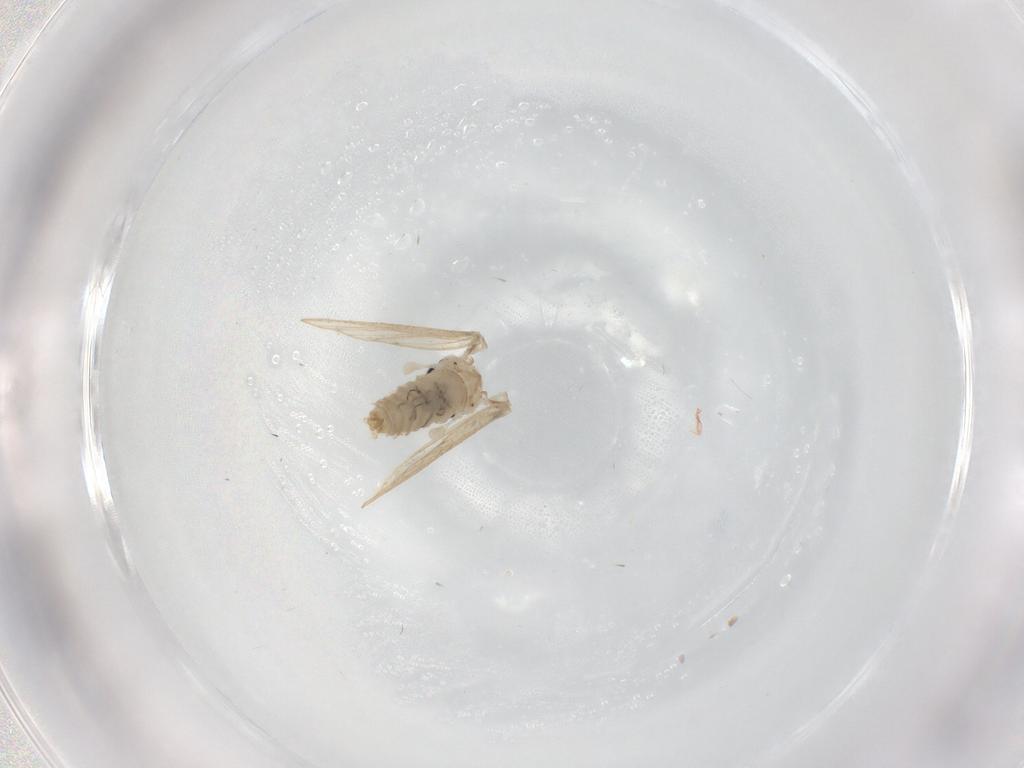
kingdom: Animalia
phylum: Arthropoda
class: Insecta
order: Diptera
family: Psychodidae
